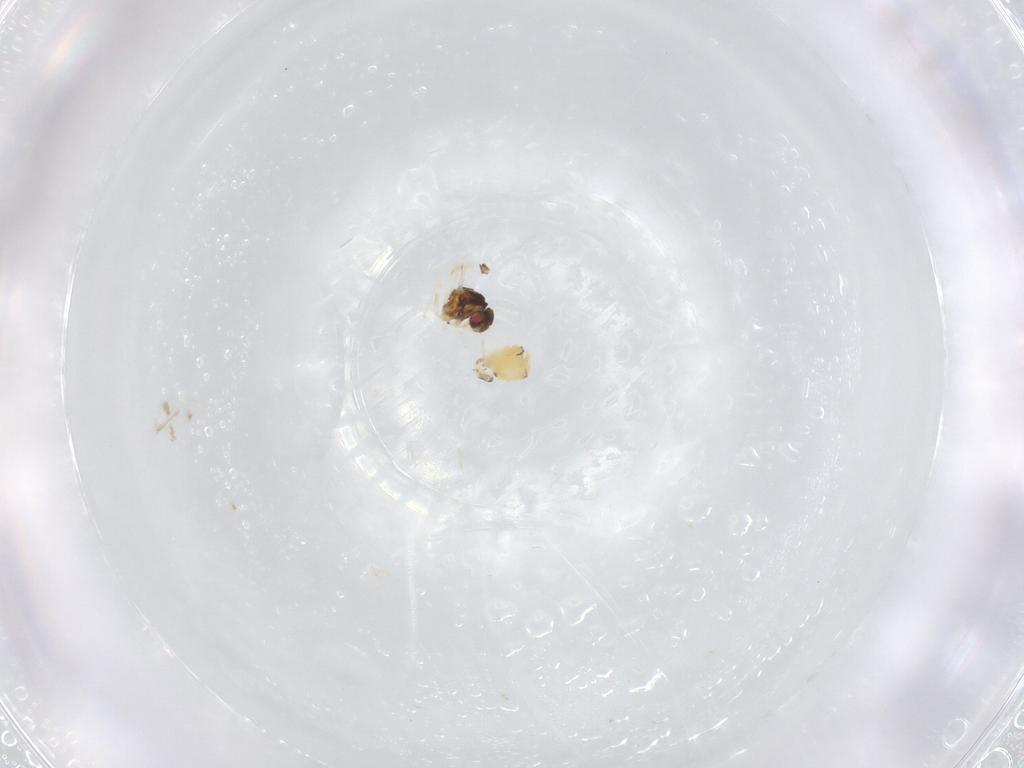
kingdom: Animalia
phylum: Arthropoda
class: Insecta
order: Hemiptera
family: Aleyrodidae
